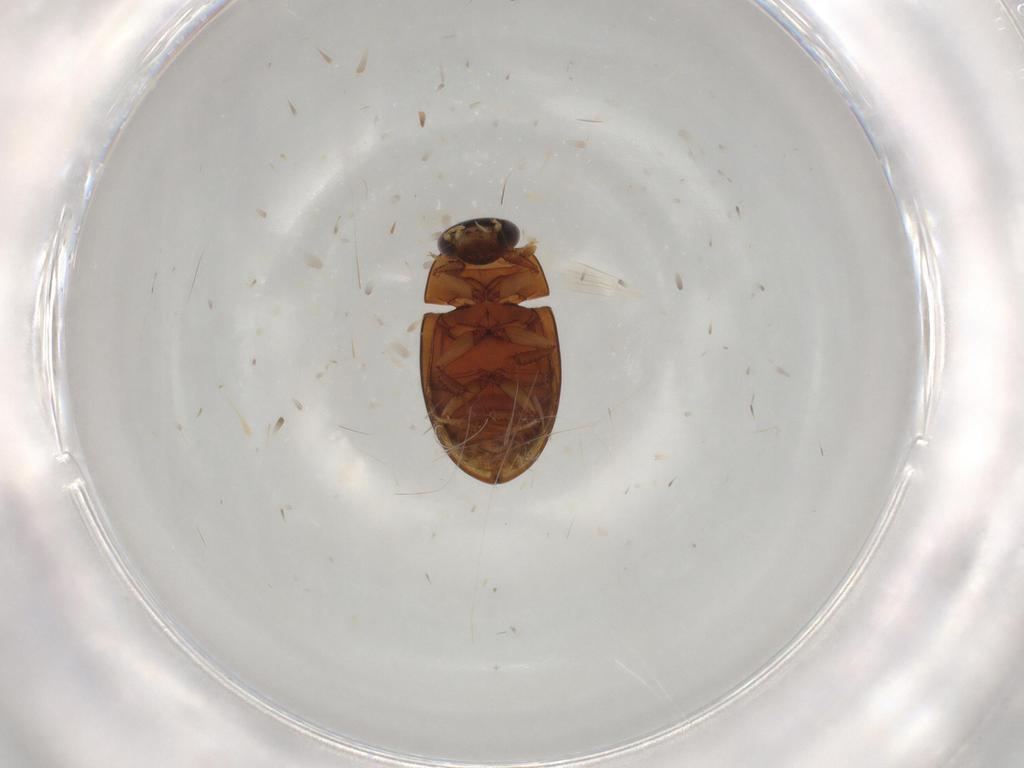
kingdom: Animalia
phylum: Arthropoda
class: Insecta
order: Coleoptera
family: Hydrophilidae
